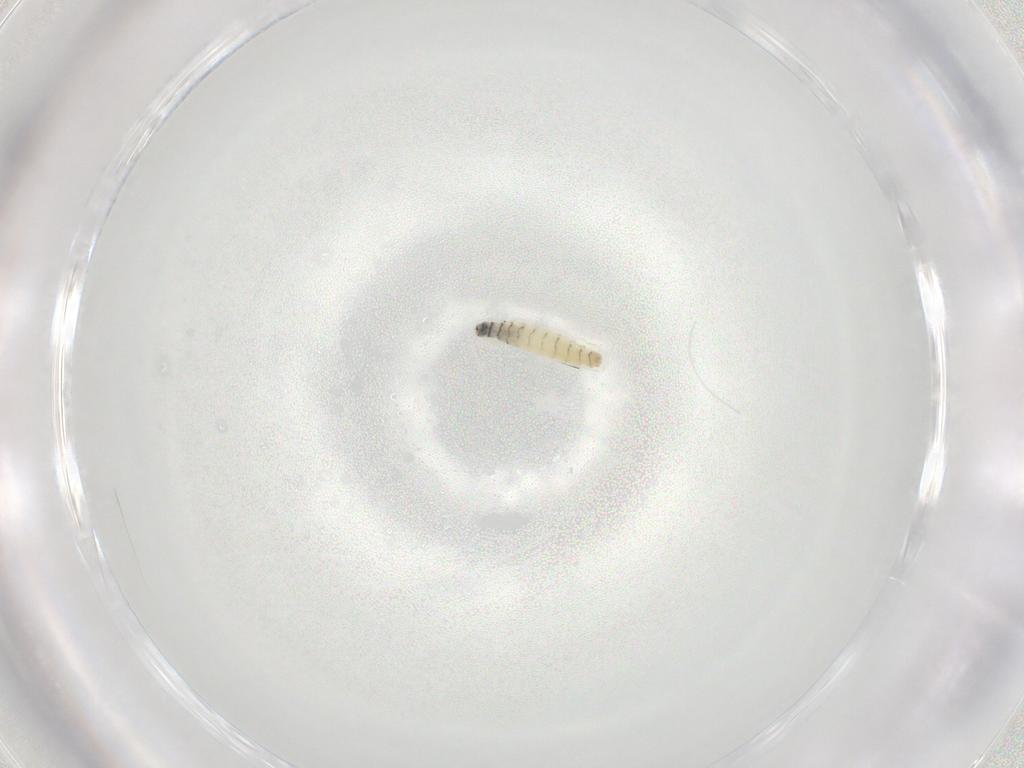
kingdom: Animalia
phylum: Arthropoda
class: Insecta
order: Diptera
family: Sarcophagidae
